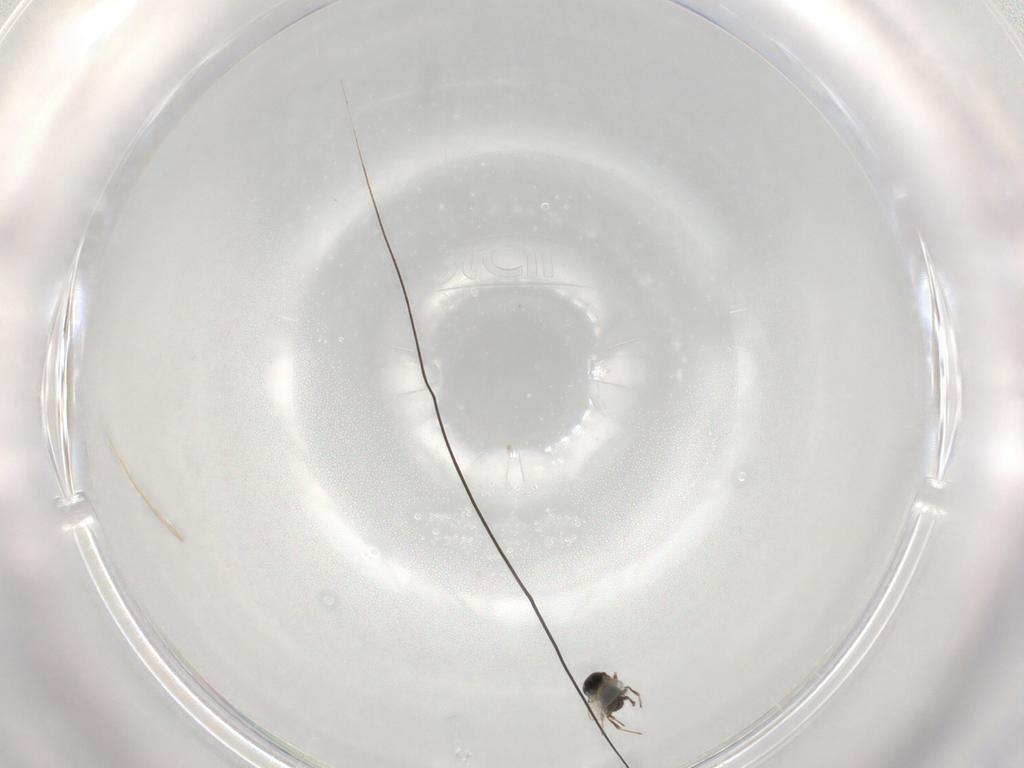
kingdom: Animalia
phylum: Arthropoda
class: Insecta
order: Hymenoptera
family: Scelionidae
